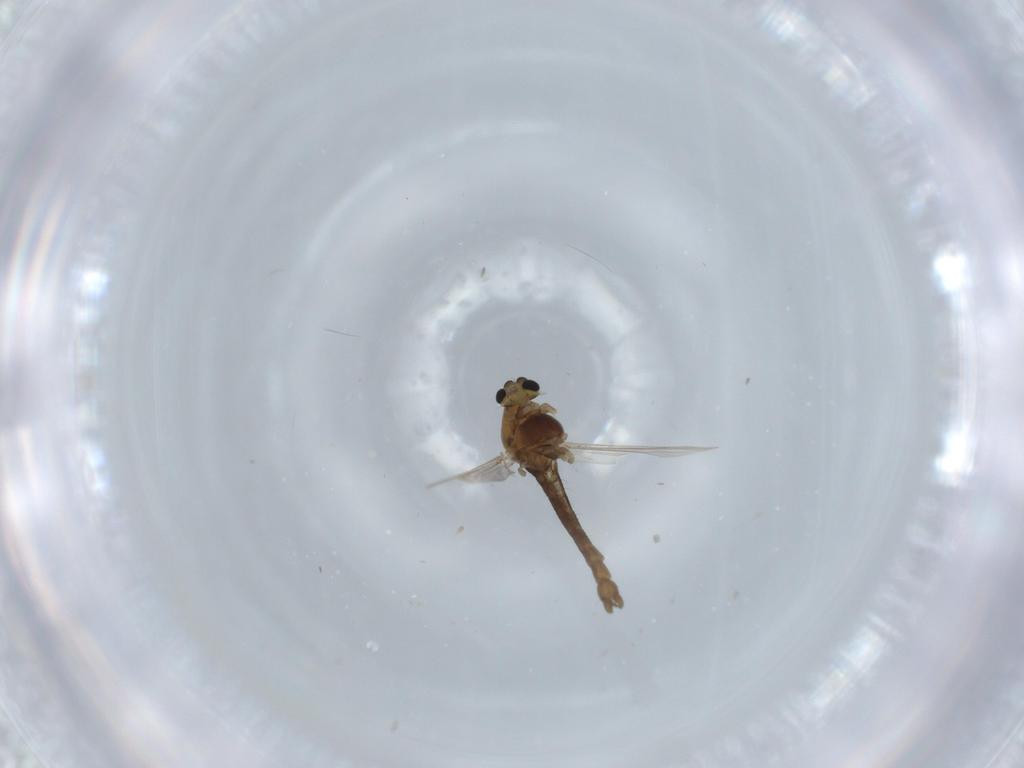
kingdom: Animalia
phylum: Arthropoda
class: Insecta
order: Diptera
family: Chironomidae
